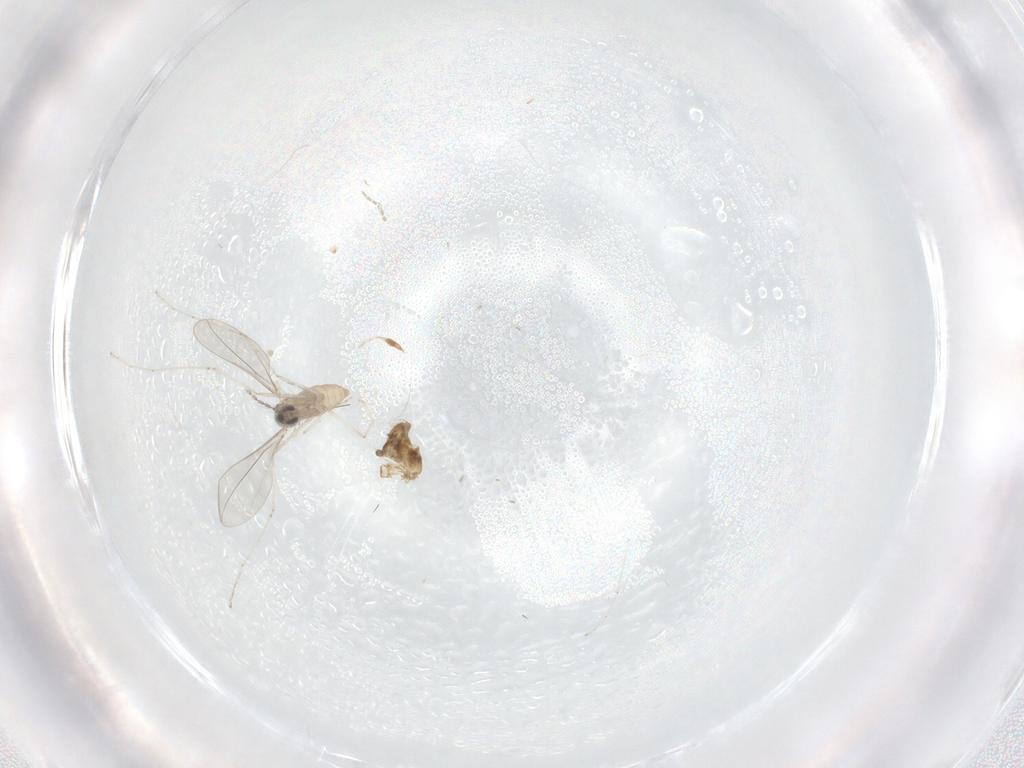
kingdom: Animalia
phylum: Arthropoda
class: Insecta
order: Diptera
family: Cecidomyiidae
